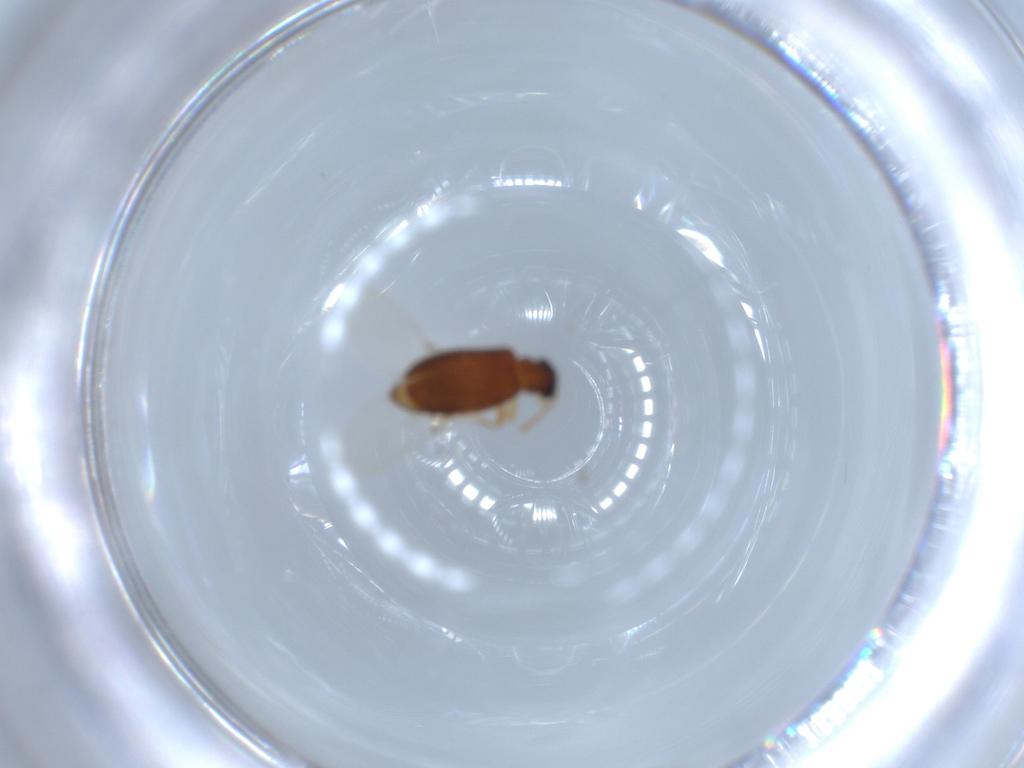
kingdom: Animalia
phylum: Arthropoda
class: Insecta
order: Coleoptera
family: Aderidae
